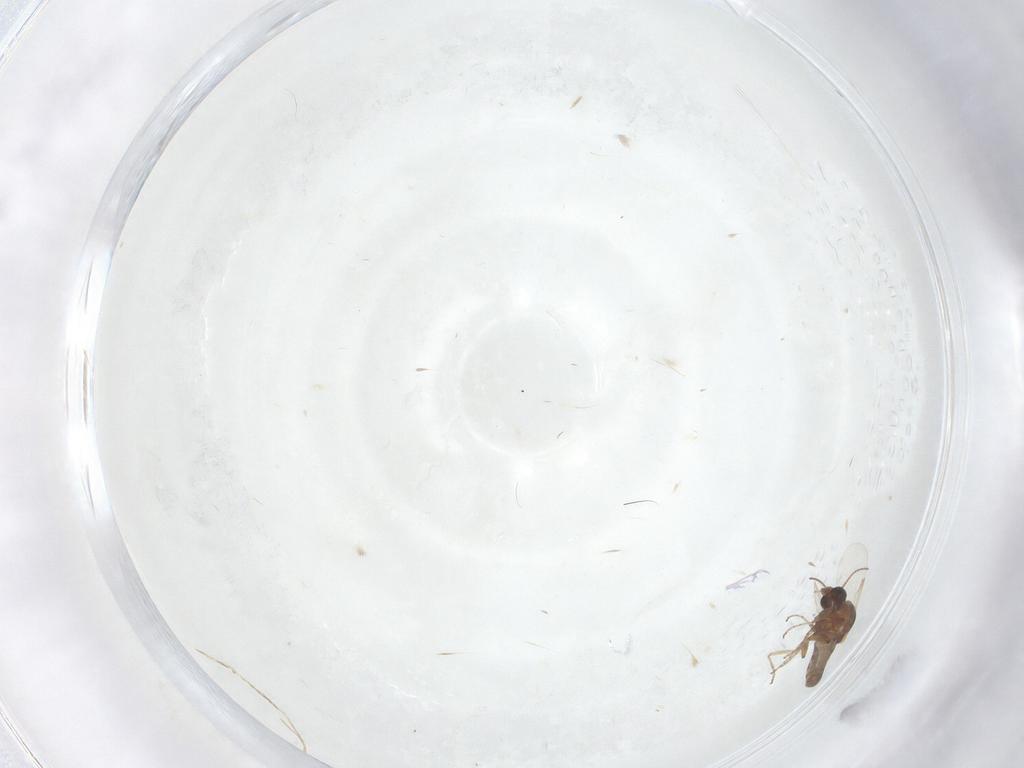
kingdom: Animalia
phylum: Arthropoda
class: Insecta
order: Diptera
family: Ceratopogonidae
